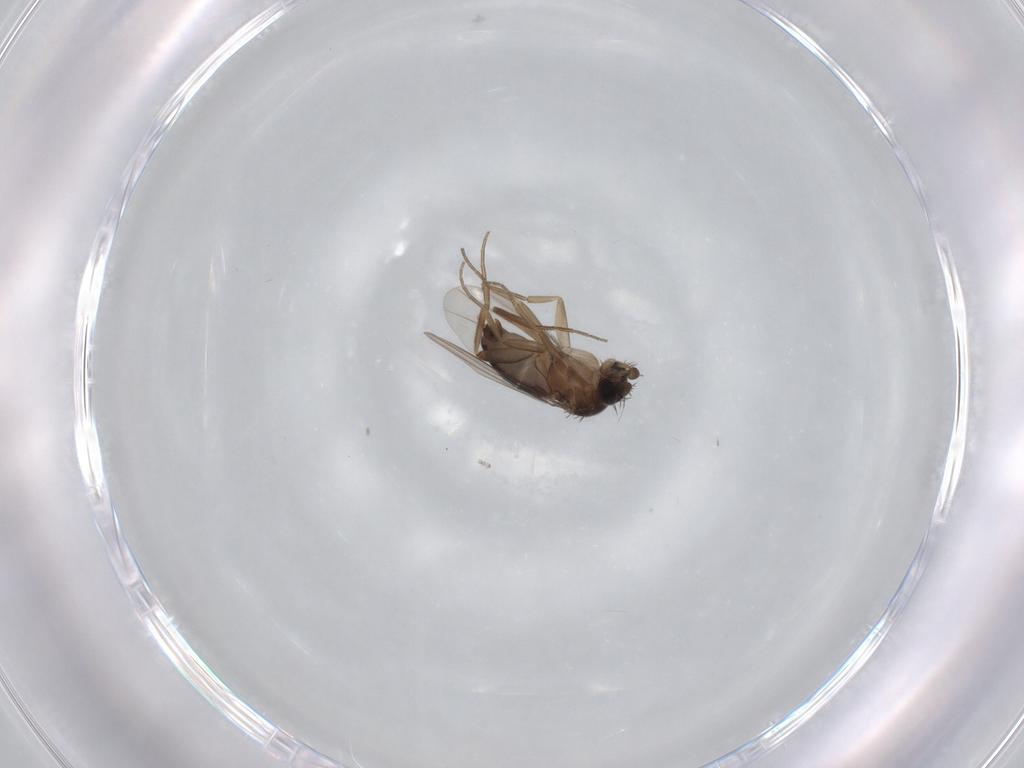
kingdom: Animalia
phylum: Arthropoda
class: Insecta
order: Diptera
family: Phoridae
